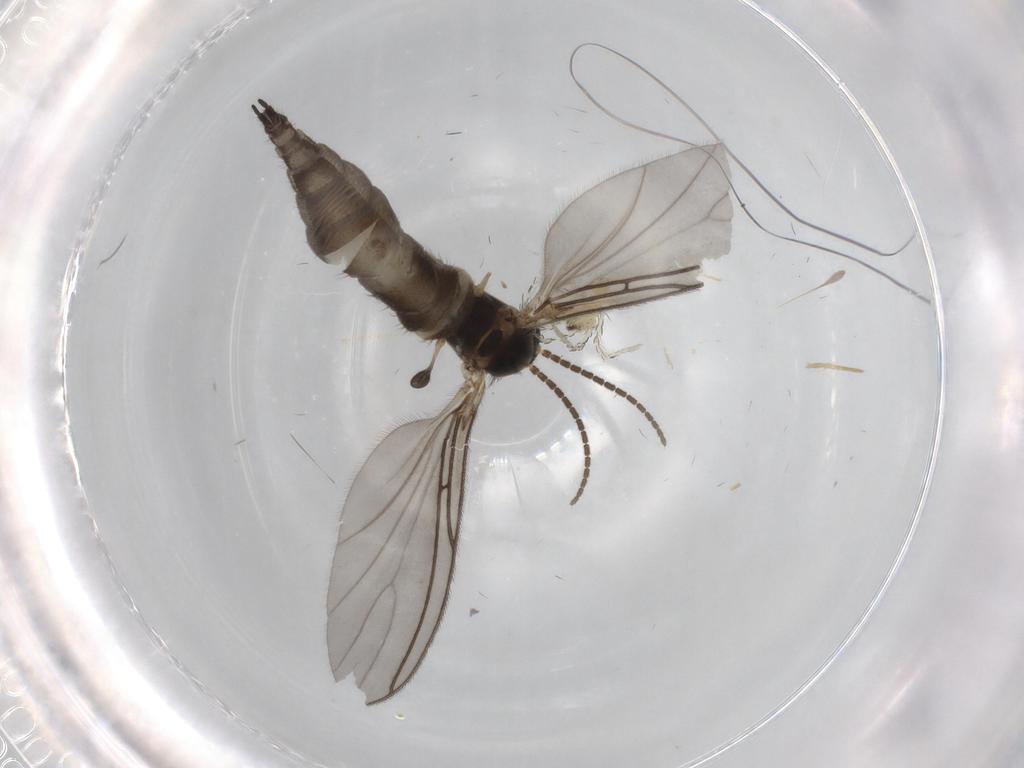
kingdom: Animalia
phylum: Arthropoda
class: Insecta
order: Diptera
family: Sciaridae
